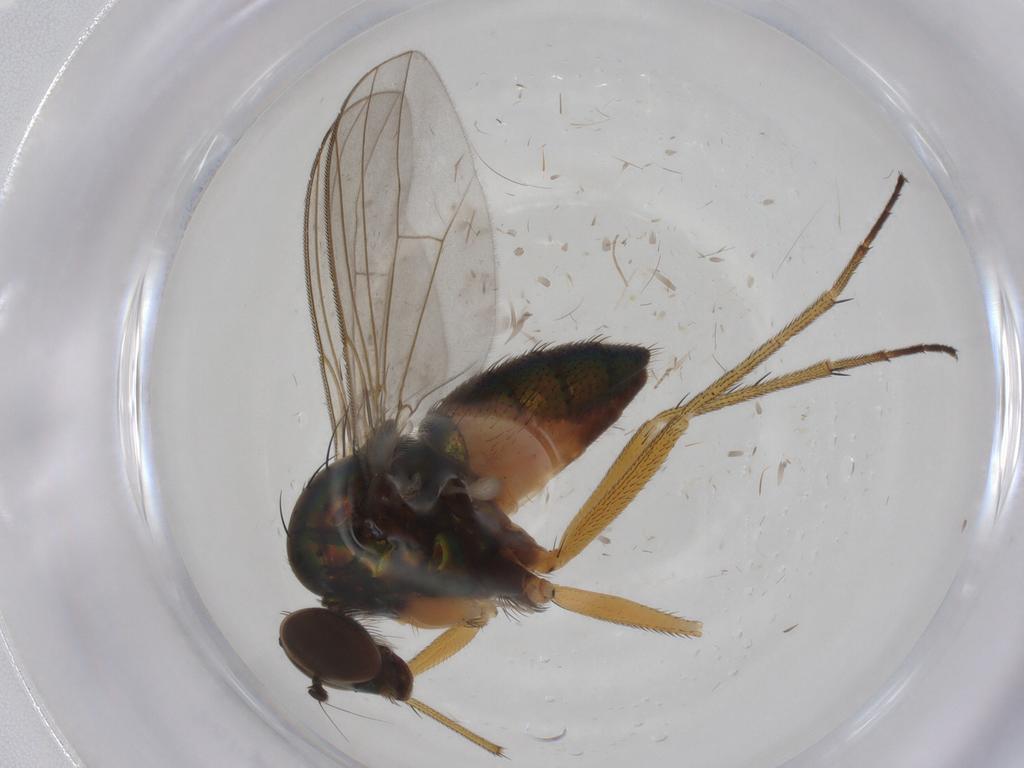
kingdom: Animalia
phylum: Arthropoda
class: Insecta
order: Diptera
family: Chironomidae
